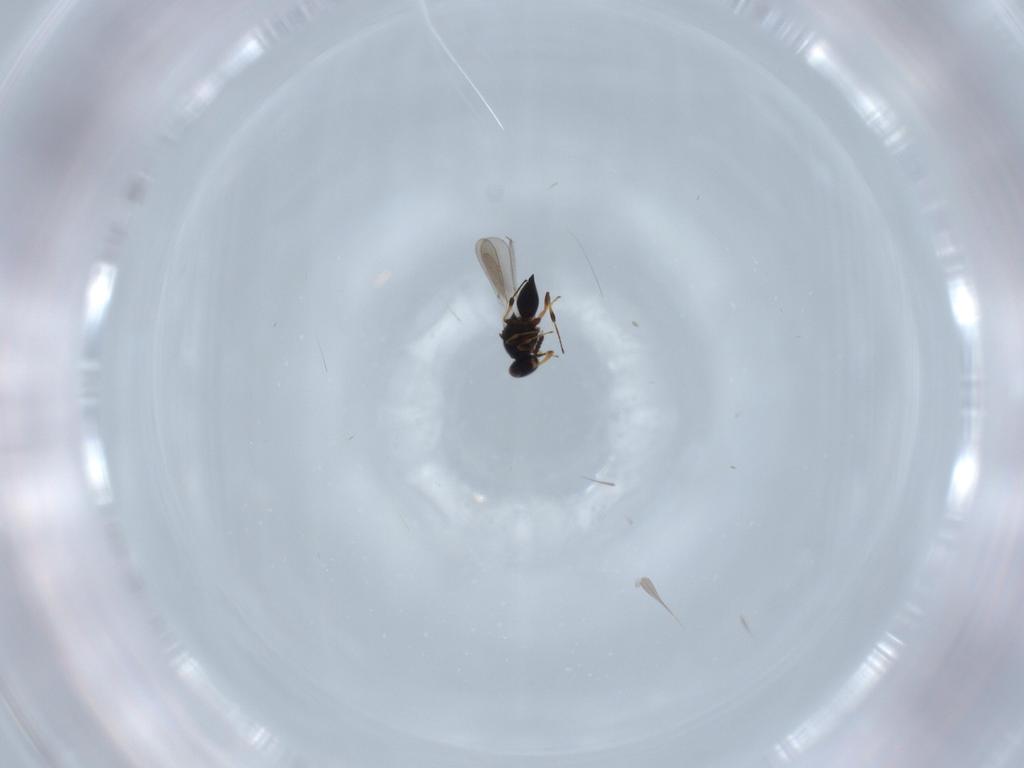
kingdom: Animalia
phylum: Arthropoda
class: Insecta
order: Hymenoptera
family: Platygastridae
